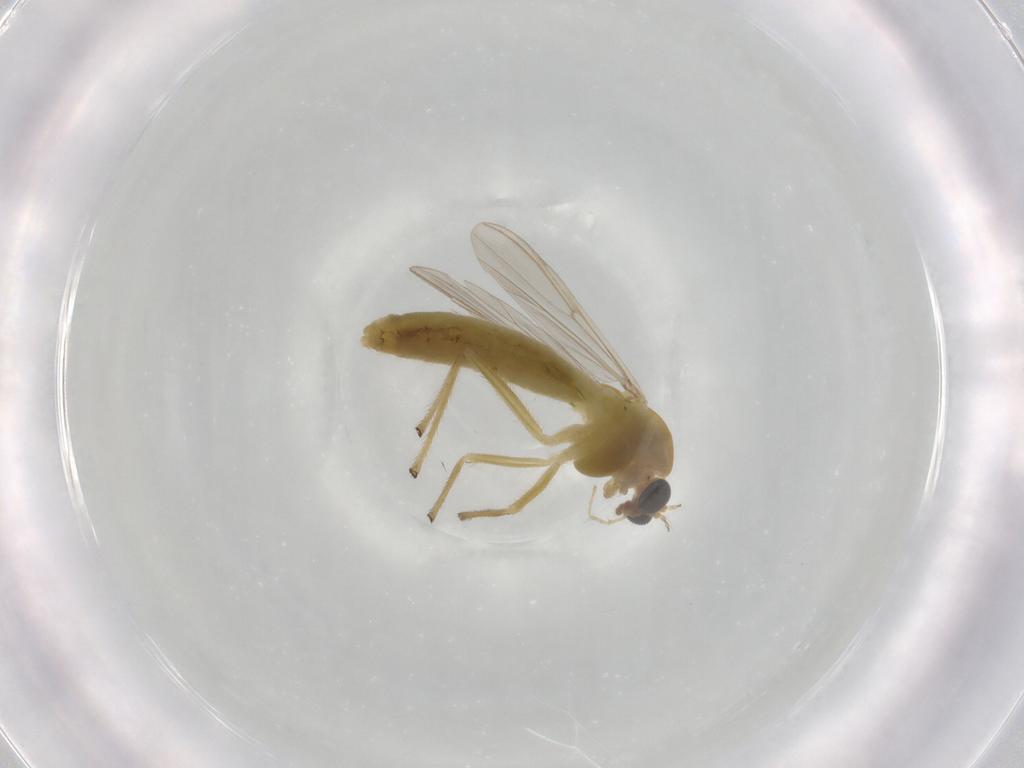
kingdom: Animalia
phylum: Arthropoda
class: Insecta
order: Diptera
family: Chironomidae
